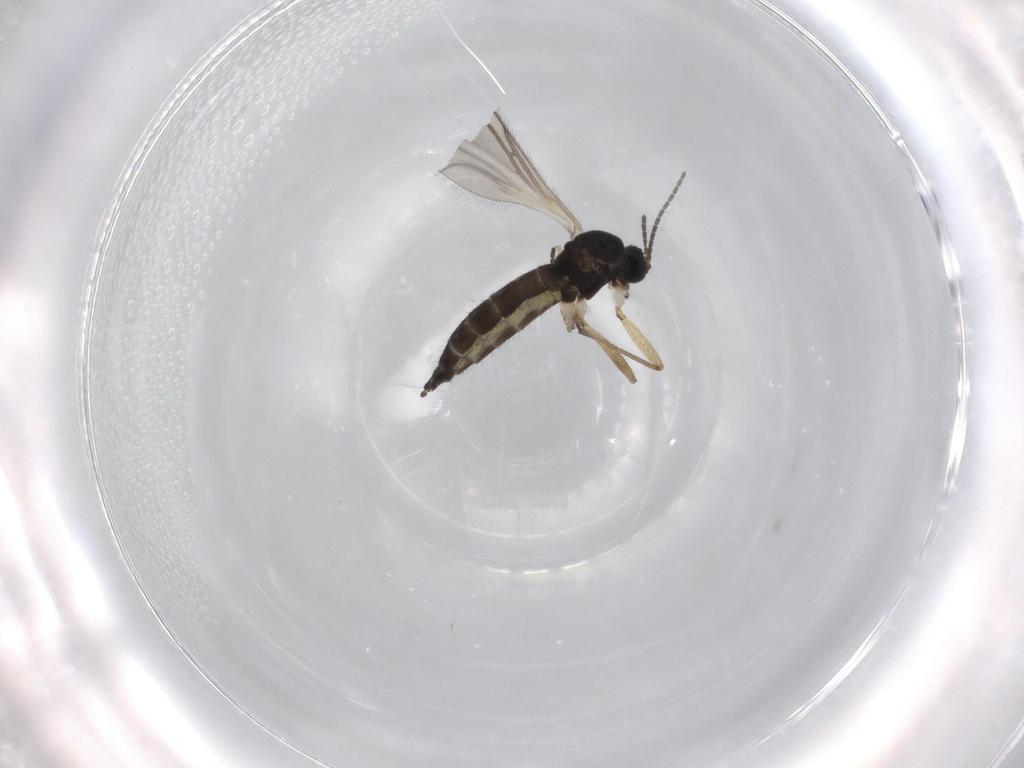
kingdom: Animalia
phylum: Arthropoda
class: Insecta
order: Diptera
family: Sciaridae
